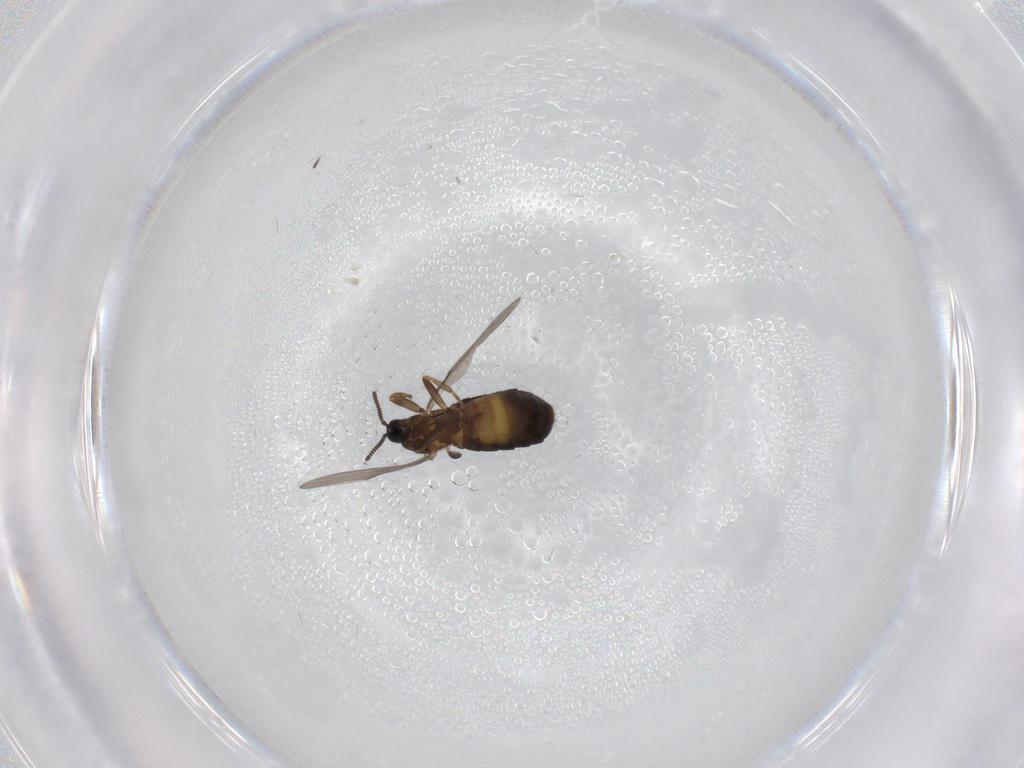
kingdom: Animalia
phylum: Arthropoda
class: Insecta
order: Diptera
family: Scatopsidae
